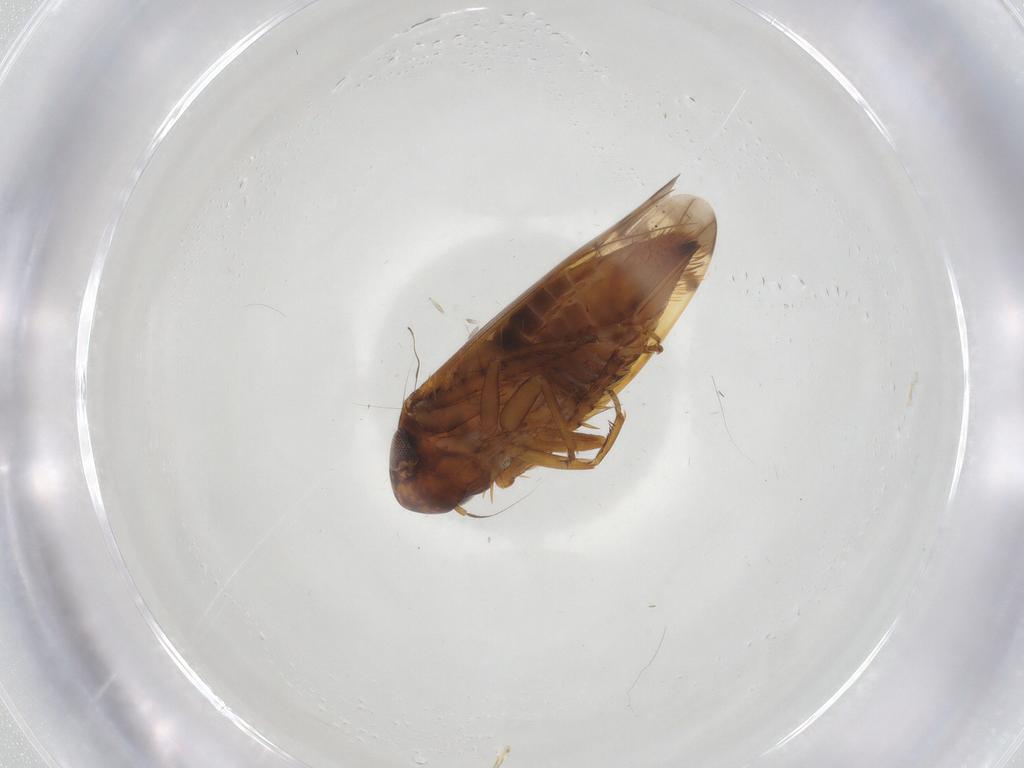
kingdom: Animalia
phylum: Arthropoda
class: Insecta
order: Hemiptera
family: Cicadellidae
